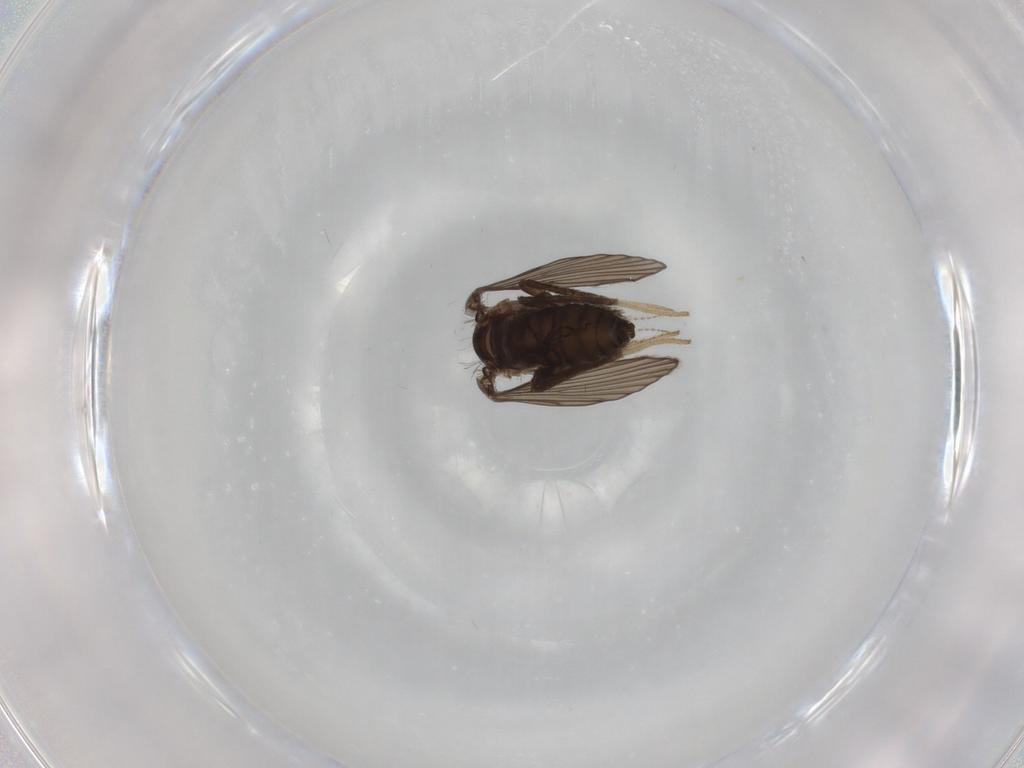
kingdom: Animalia
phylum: Arthropoda
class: Insecta
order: Diptera
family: Psychodidae
